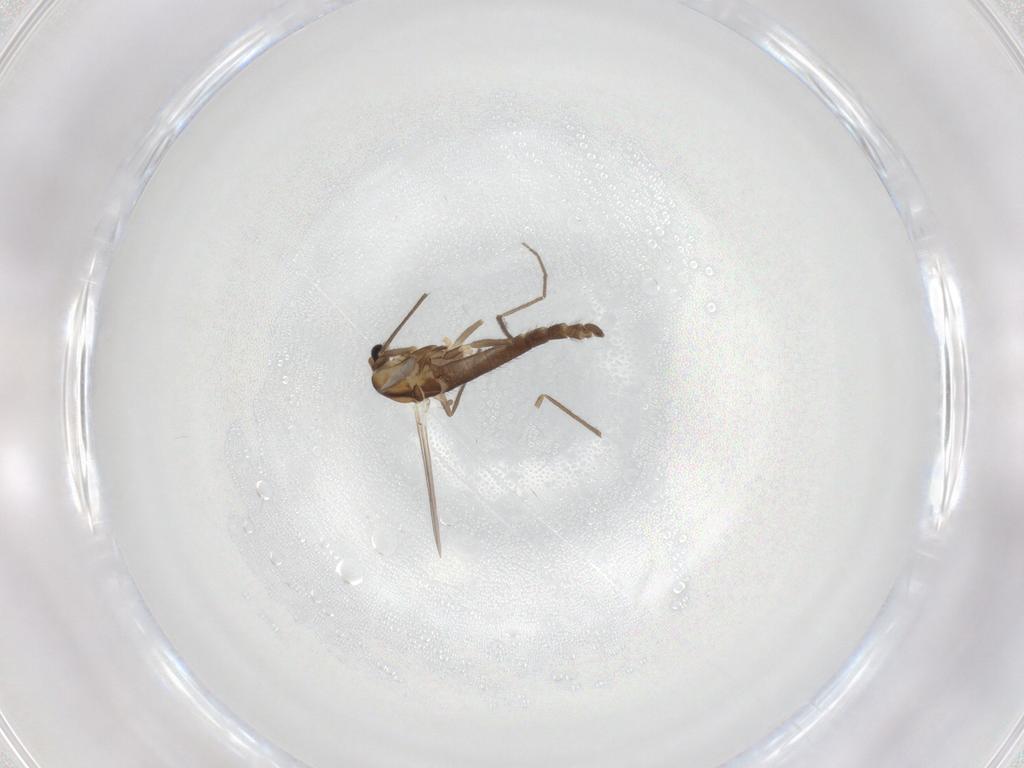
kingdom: Animalia
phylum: Arthropoda
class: Insecta
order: Diptera
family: Chironomidae
